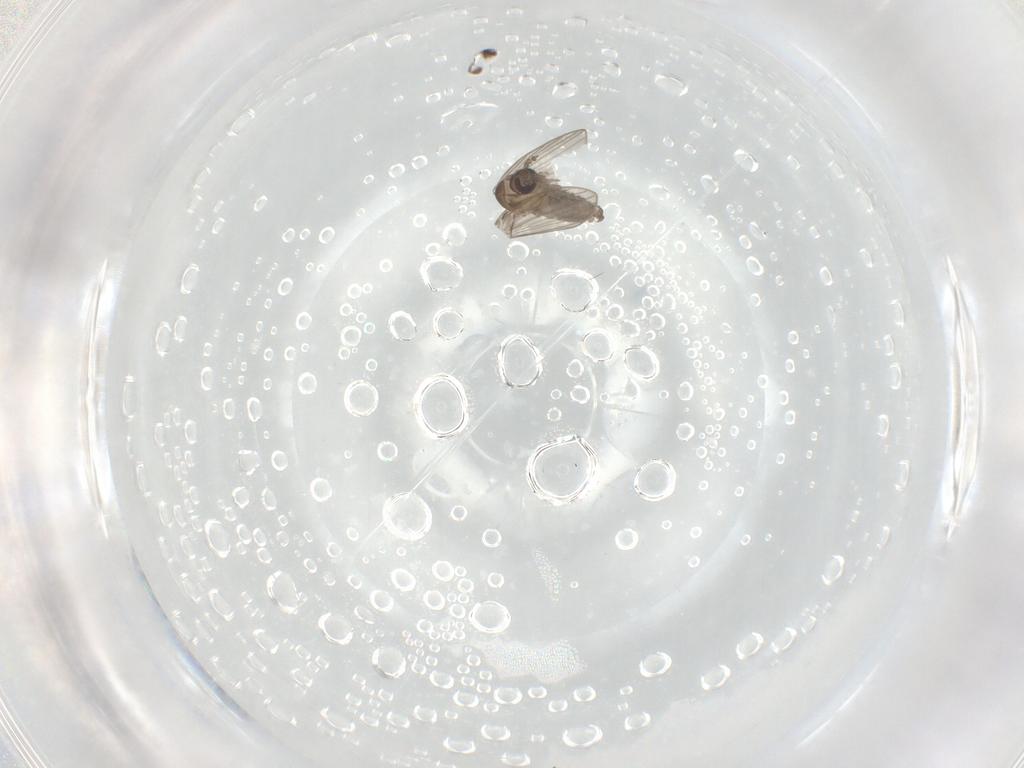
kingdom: Animalia
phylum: Arthropoda
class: Insecta
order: Diptera
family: Psychodidae
